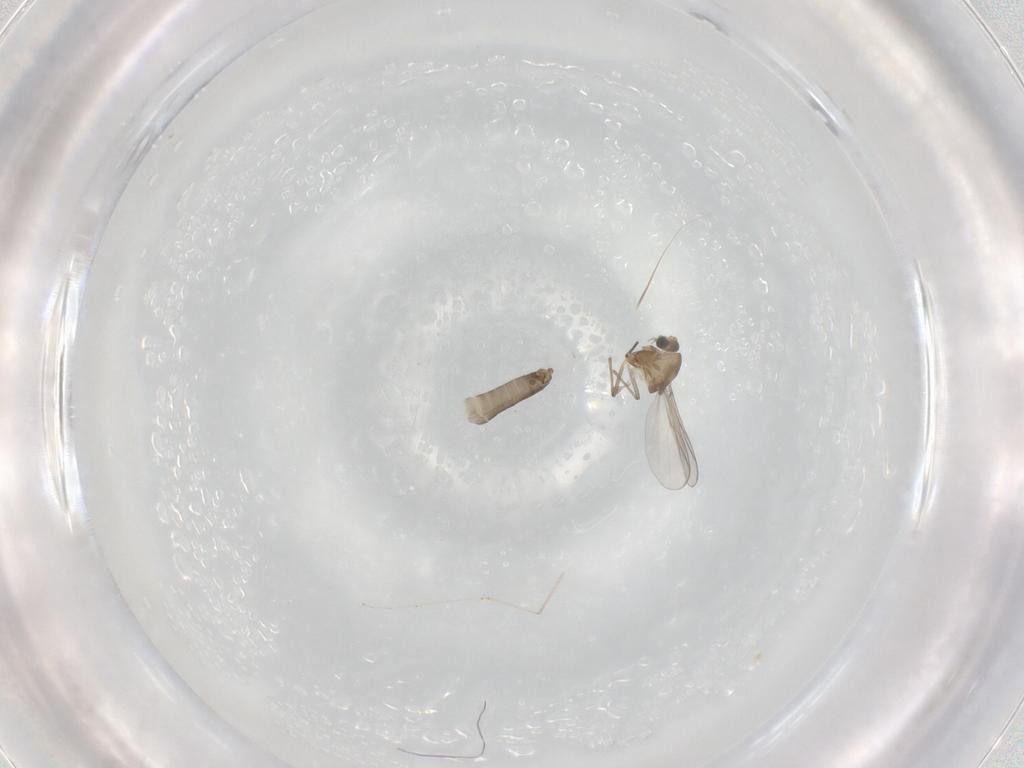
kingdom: Animalia
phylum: Arthropoda
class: Insecta
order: Diptera
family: Chironomidae
